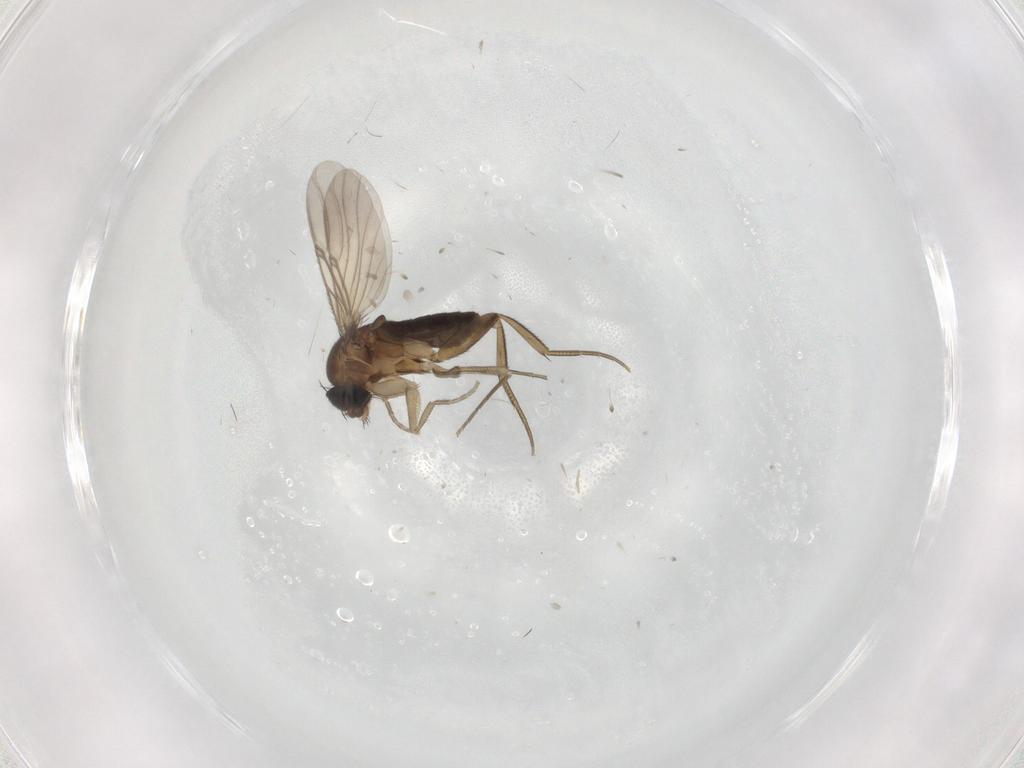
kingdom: Animalia
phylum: Arthropoda
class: Insecta
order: Diptera
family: Phoridae
